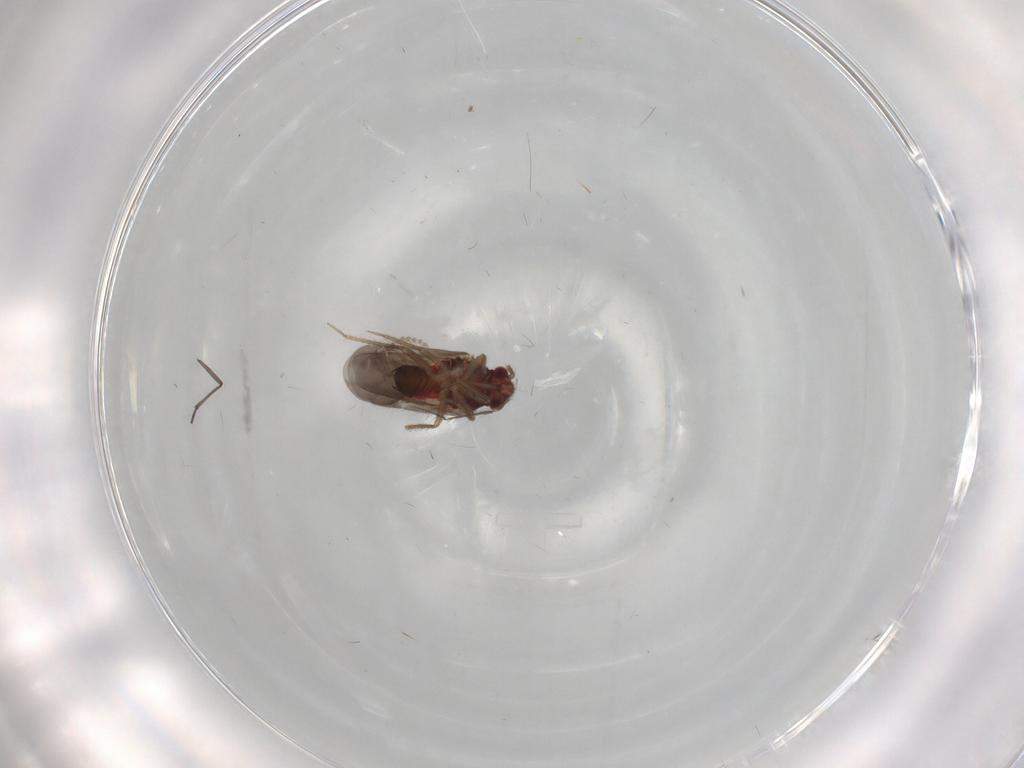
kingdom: Animalia
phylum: Arthropoda
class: Insecta
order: Hemiptera
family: Ceratocombidae
